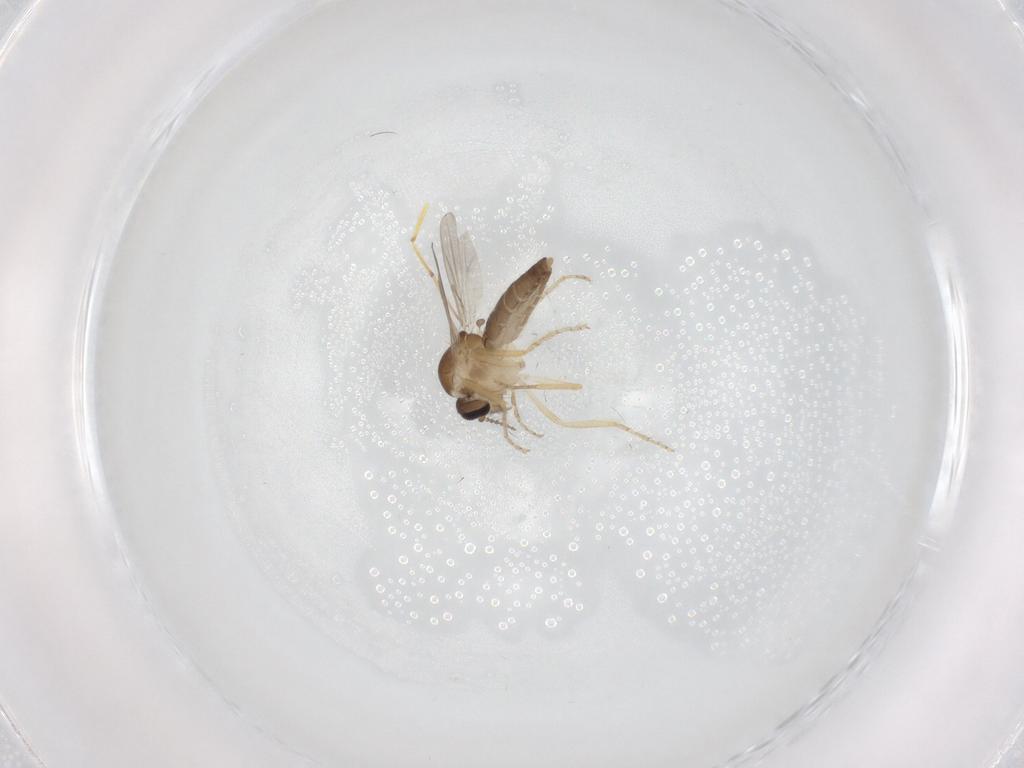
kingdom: Animalia
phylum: Arthropoda
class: Insecta
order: Diptera
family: Ceratopogonidae
